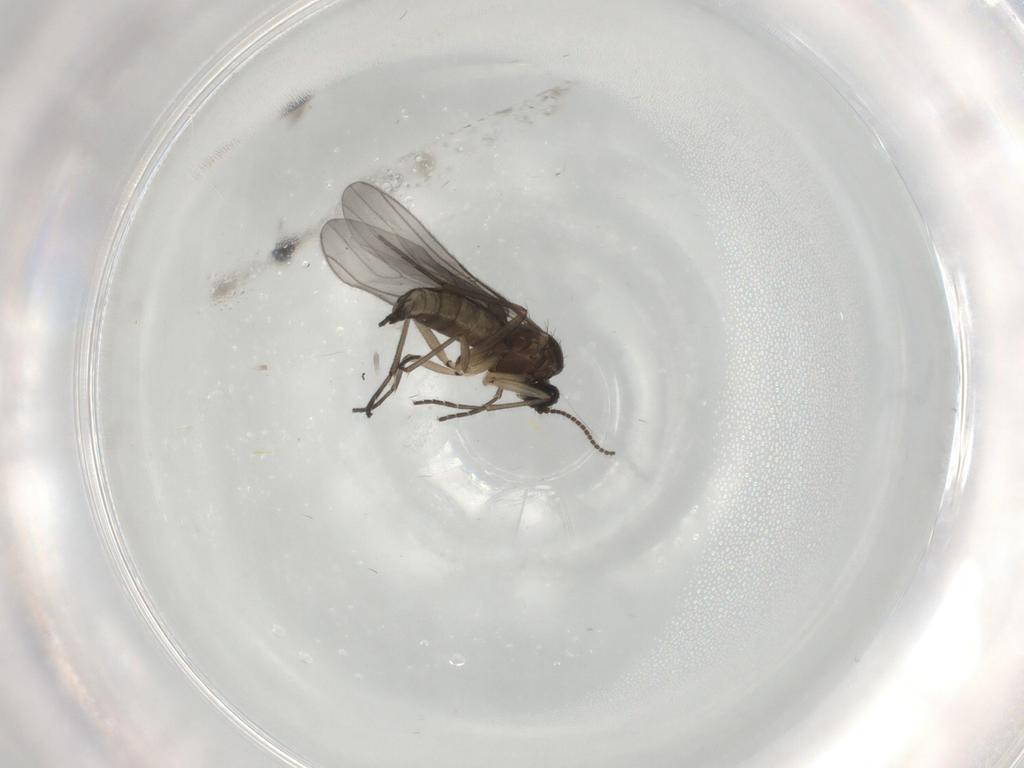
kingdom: Animalia
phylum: Arthropoda
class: Insecta
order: Diptera
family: Sciaridae
